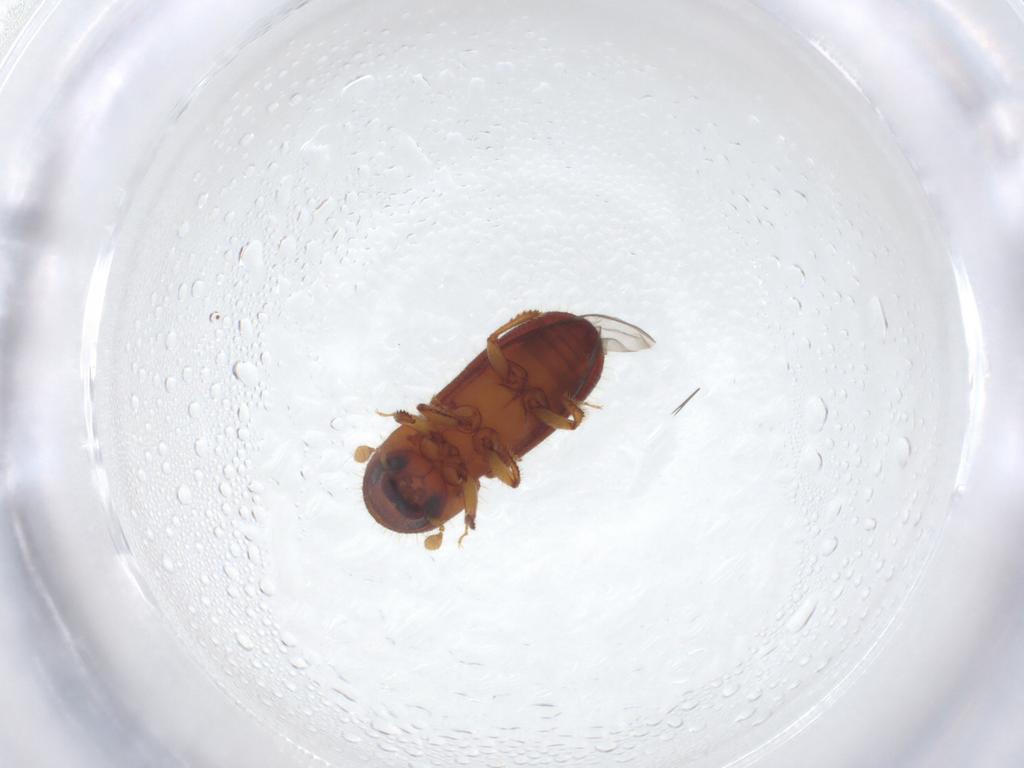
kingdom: Animalia
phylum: Arthropoda
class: Insecta
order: Coleoptera
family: Curculionidae
